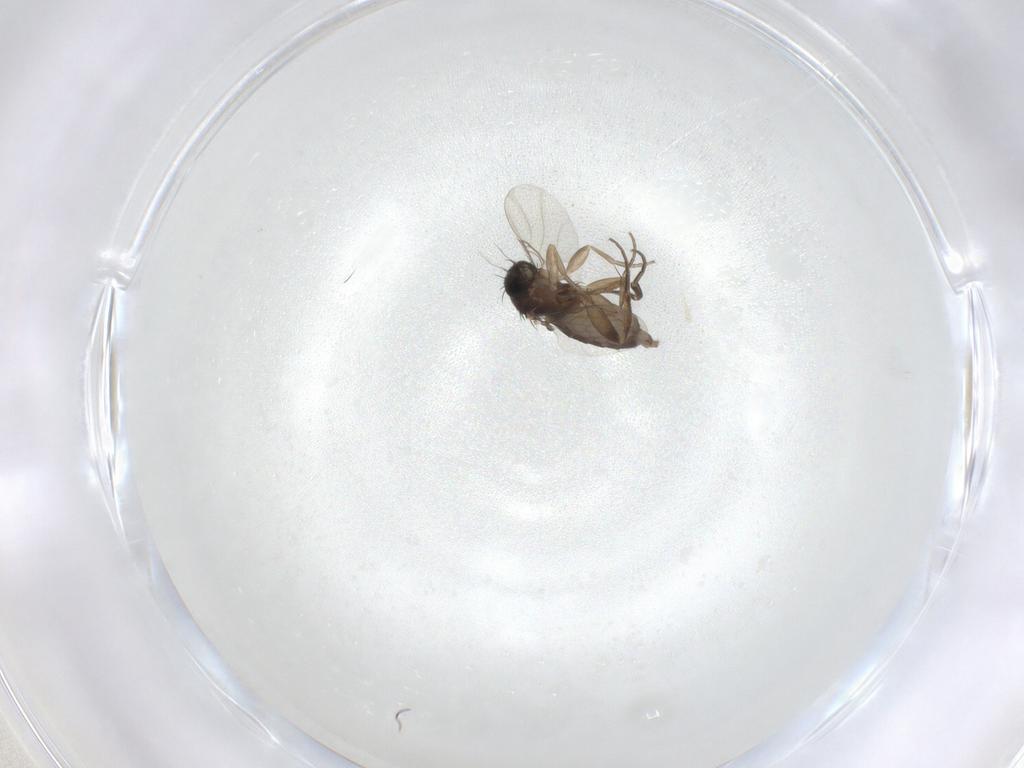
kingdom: Animalia
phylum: Arthropoda
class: Insecta
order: Diptera
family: Phoridae
